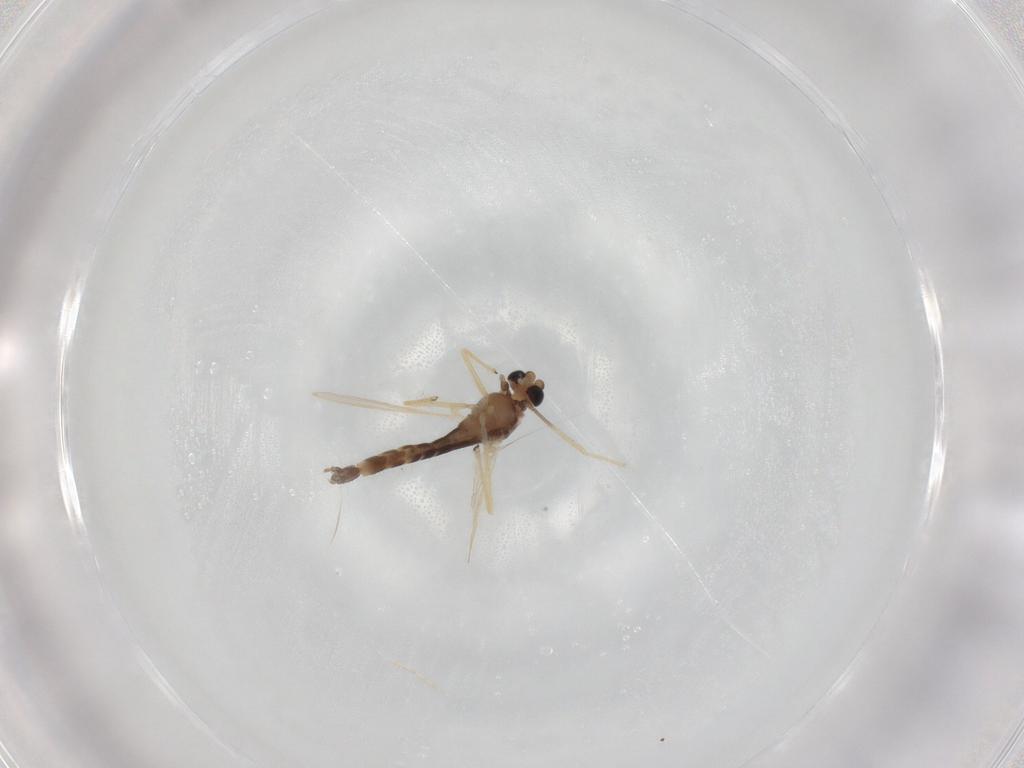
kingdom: Animalia
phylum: Arthropoda
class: Insecta
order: Diptera
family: Chironomidae
